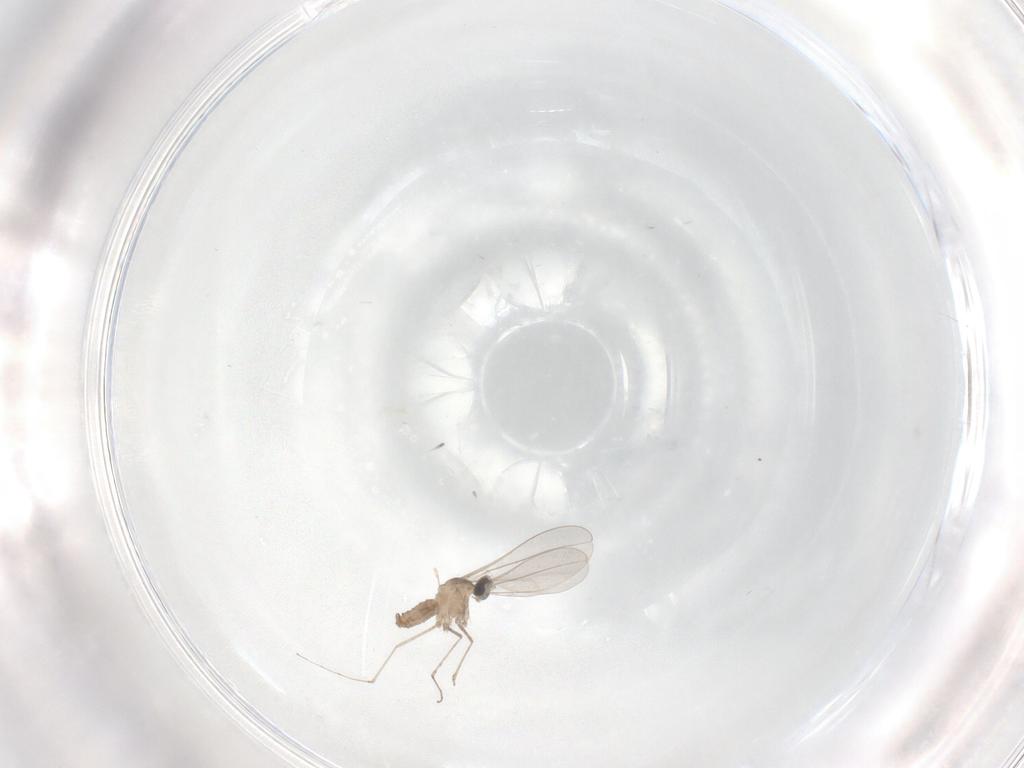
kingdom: Animalia
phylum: Arthropoda
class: Insecta
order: Diptera
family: Cecidomyiidae
